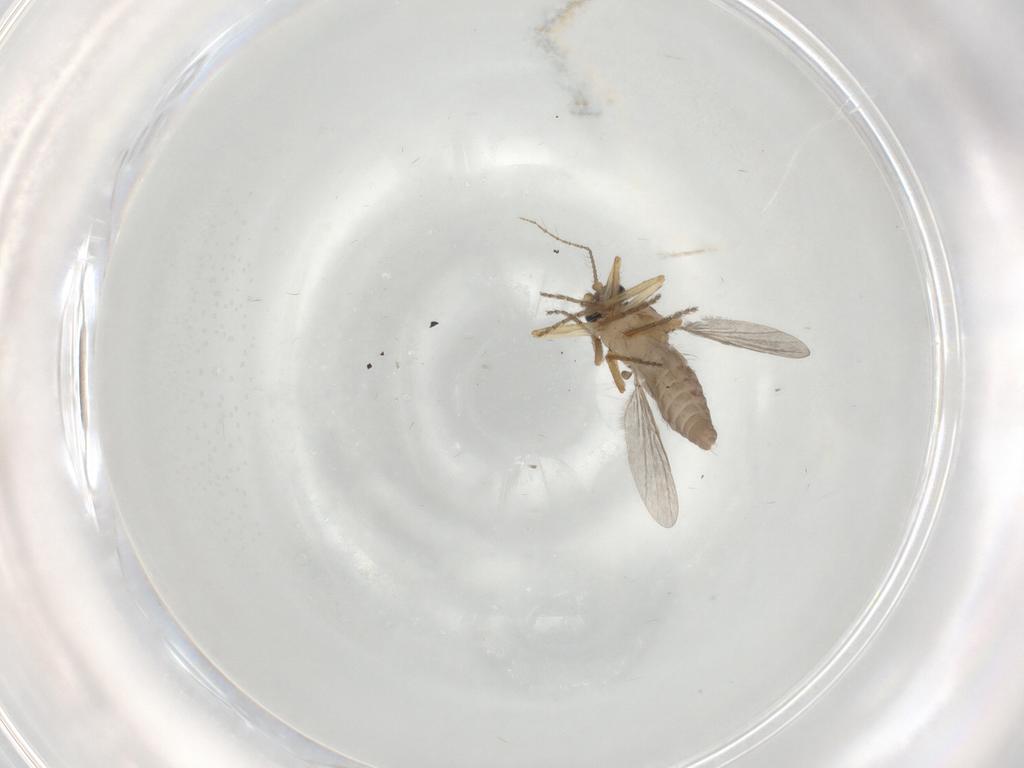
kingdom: Animalia
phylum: Arthropoda
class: Insecta
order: Diptera
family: Ceratopogonidae
